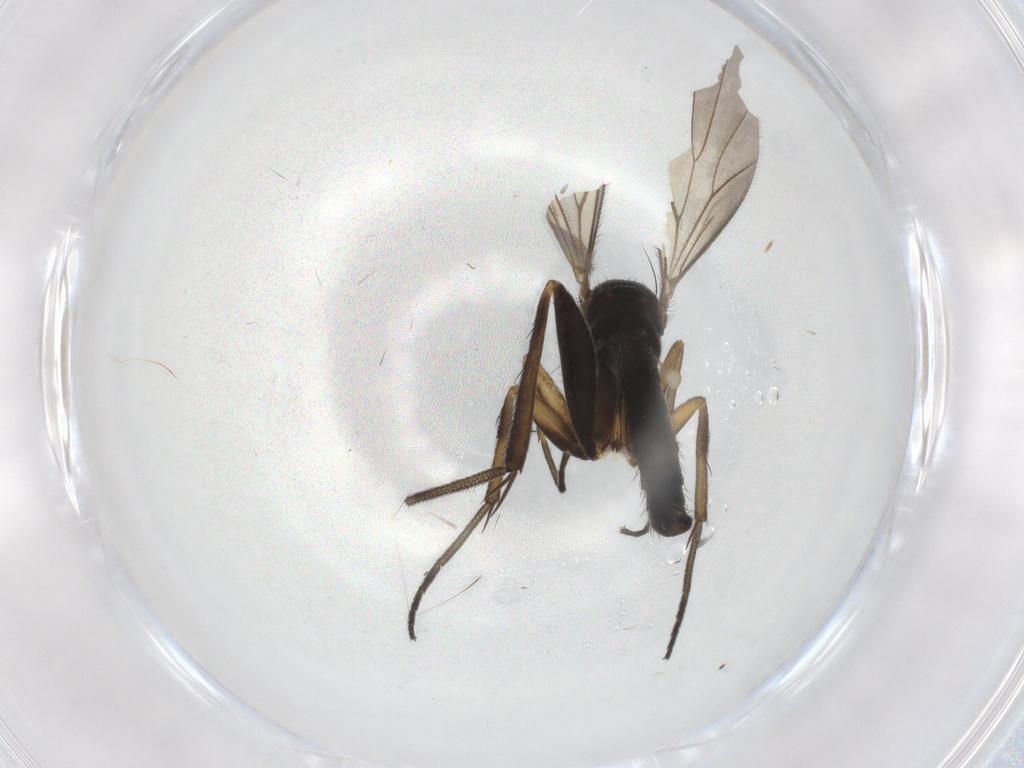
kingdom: Animalia
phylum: Arthropoda
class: Insecta
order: Diptera
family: Mycetophilidae
